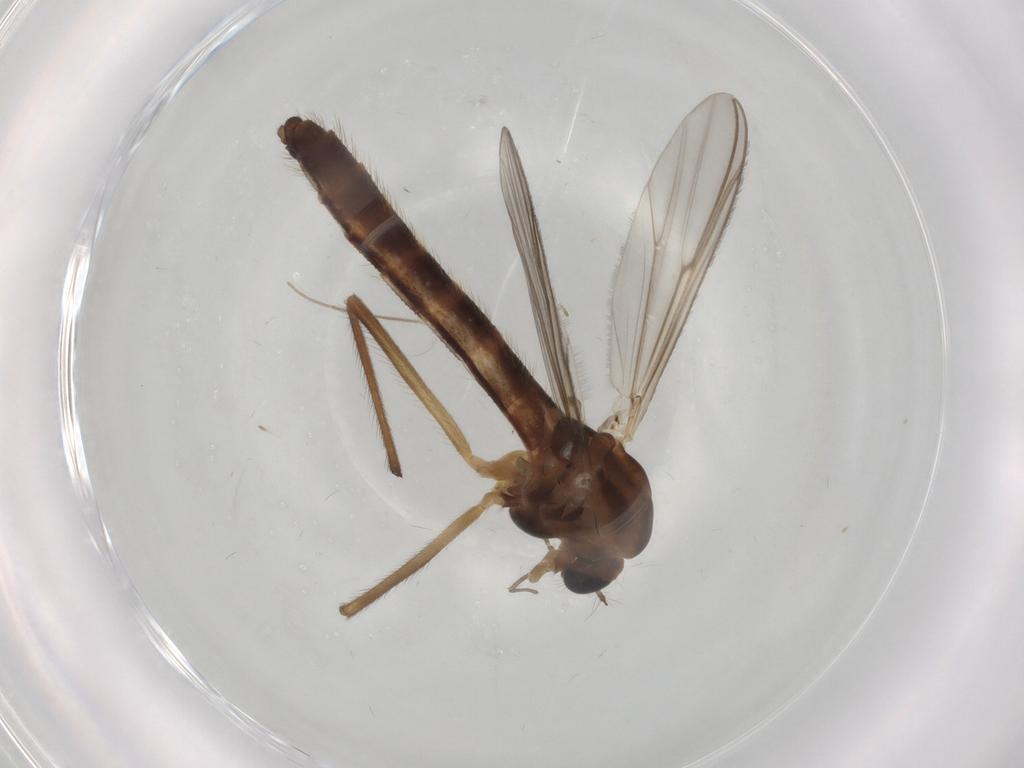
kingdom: Animalia
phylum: Arthropoda
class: Insecta
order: Diptera
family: Chironomidae
